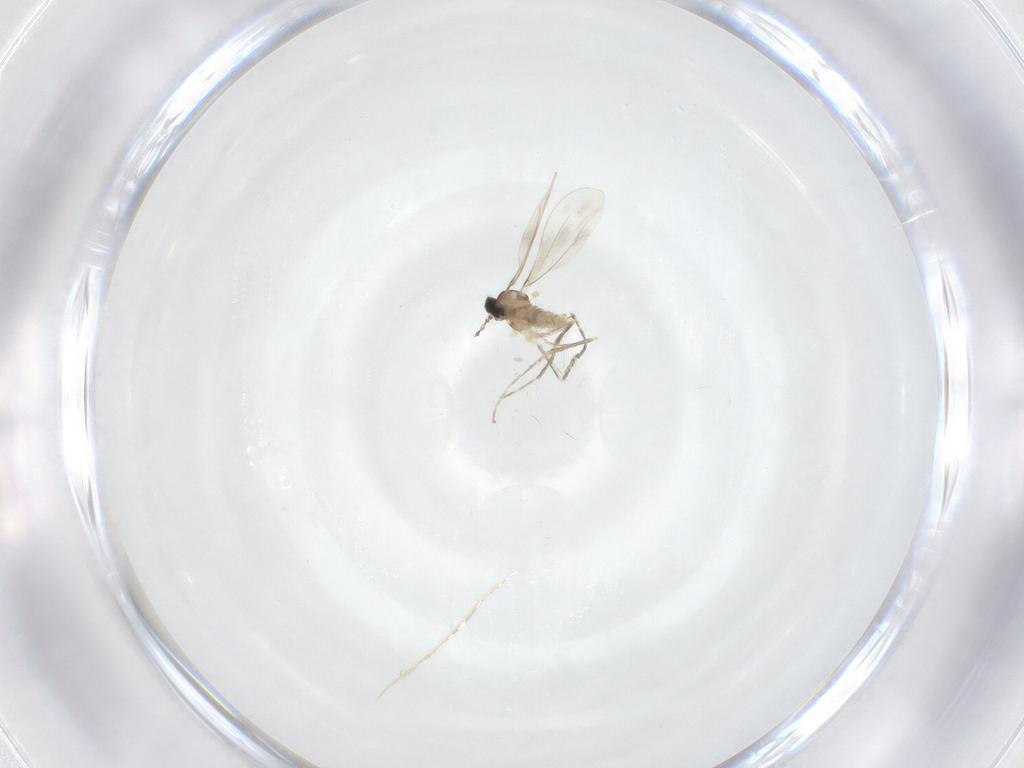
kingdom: Animalia
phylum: Arthropoda
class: Insecta
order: Diptera
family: Cecidomyiidae
